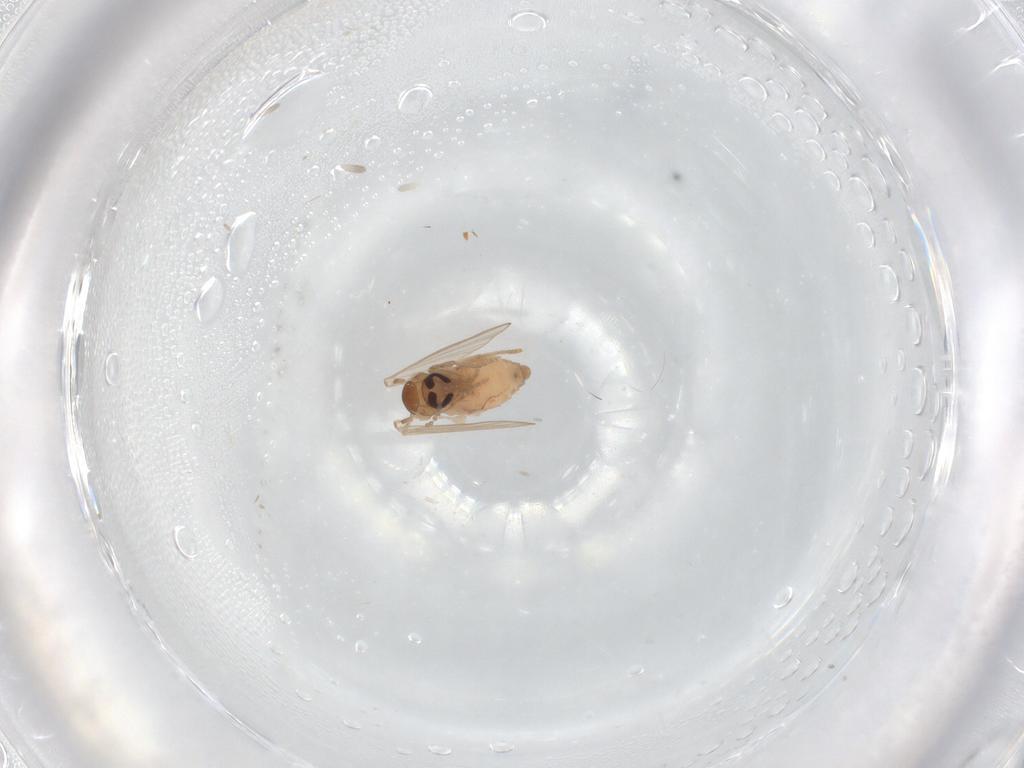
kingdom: Animalia
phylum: Arthropoda
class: Insecta
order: Diptera
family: Psychodidae
